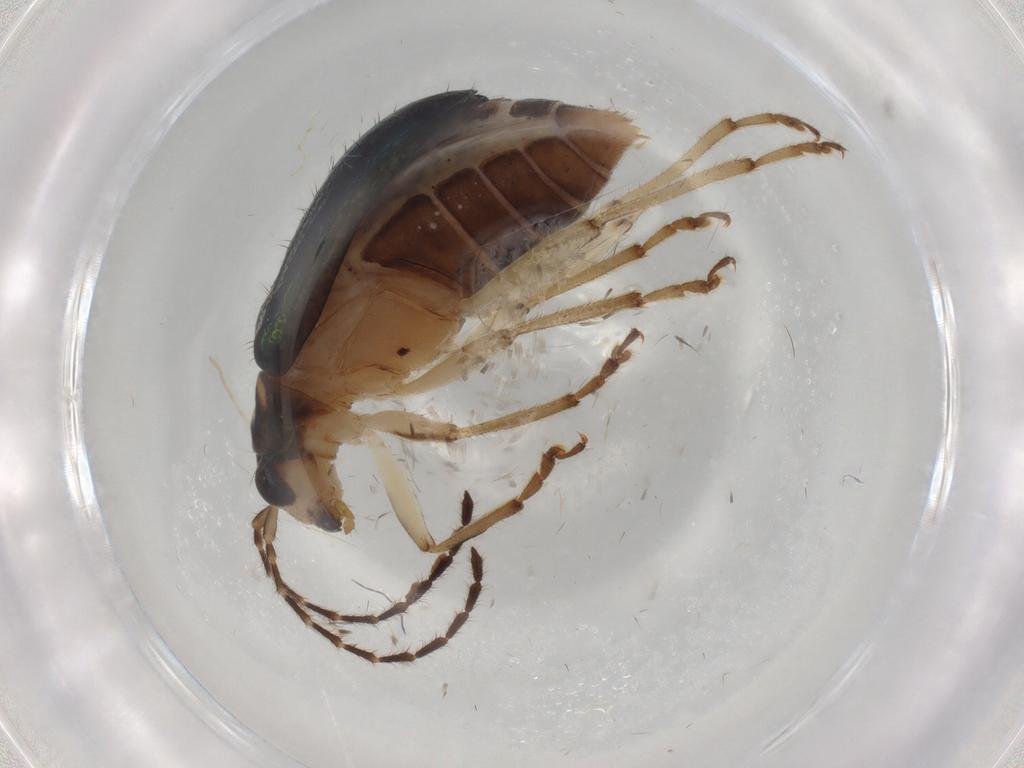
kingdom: Animalia
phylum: Arthropoda
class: Insecta
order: Coleoptera
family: Chrysomelidae
